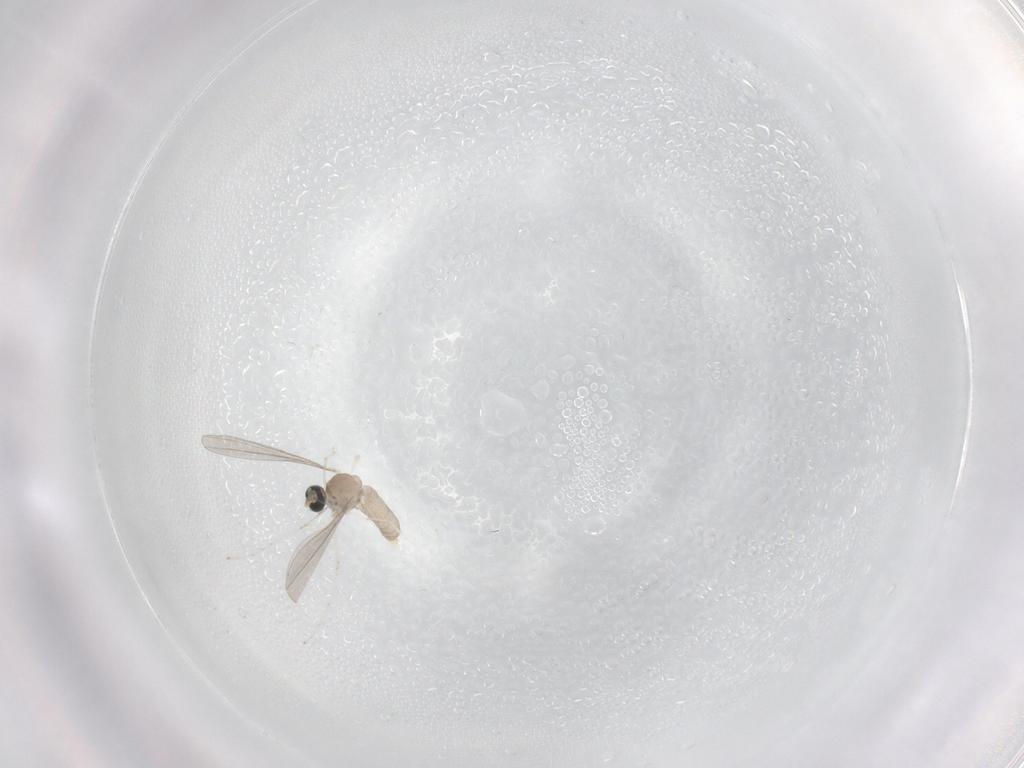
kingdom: Animalia
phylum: Arthropoda
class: Insecta
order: Diptera
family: Cecidomyiidae
